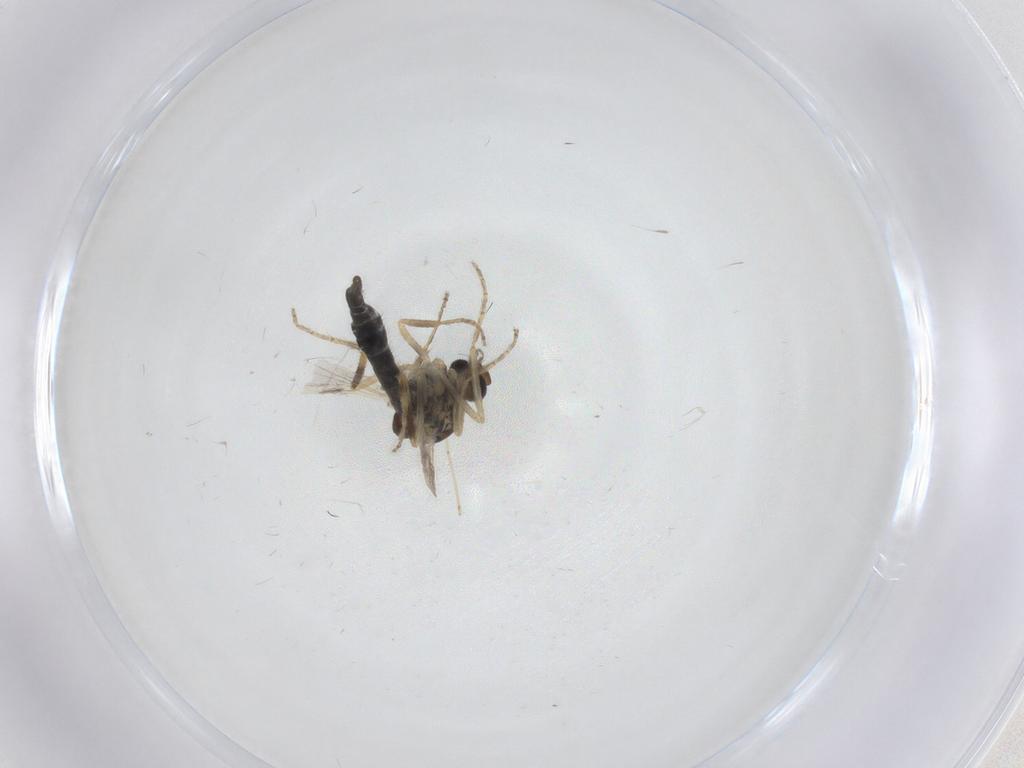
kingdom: Animalia
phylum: Arthropoda
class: Insecta
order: Diptera
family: Ceratopogonidae
